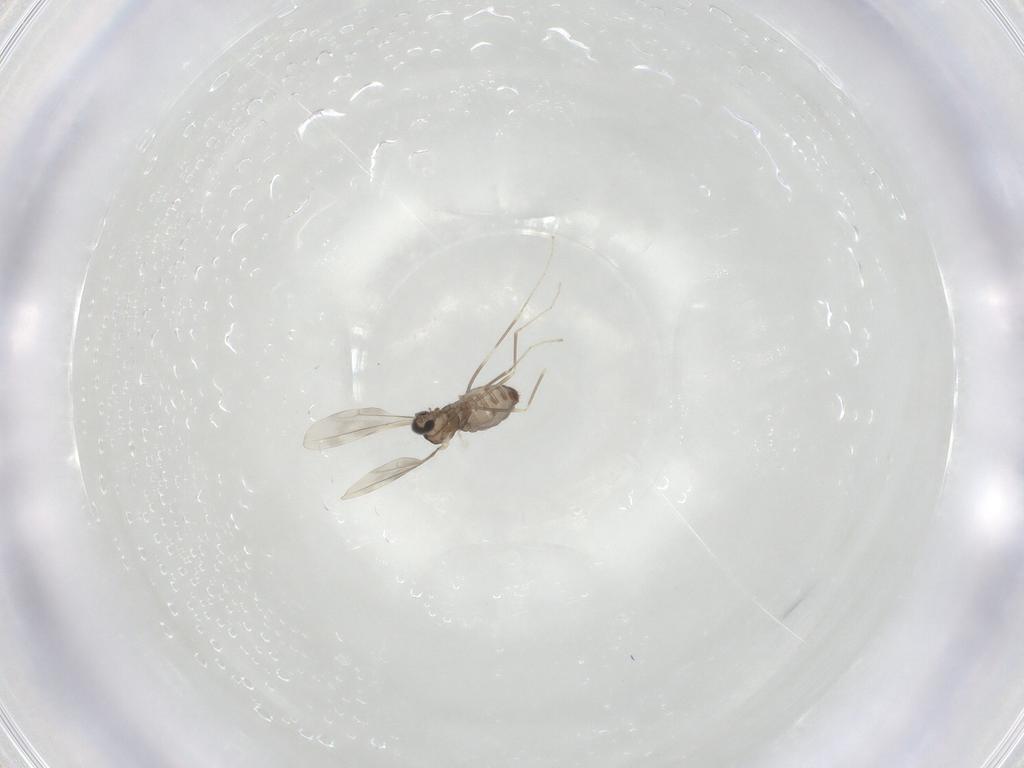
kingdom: Animalia
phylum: Arthropoda
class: Insecta
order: Diptera
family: Cecidomyiidae
